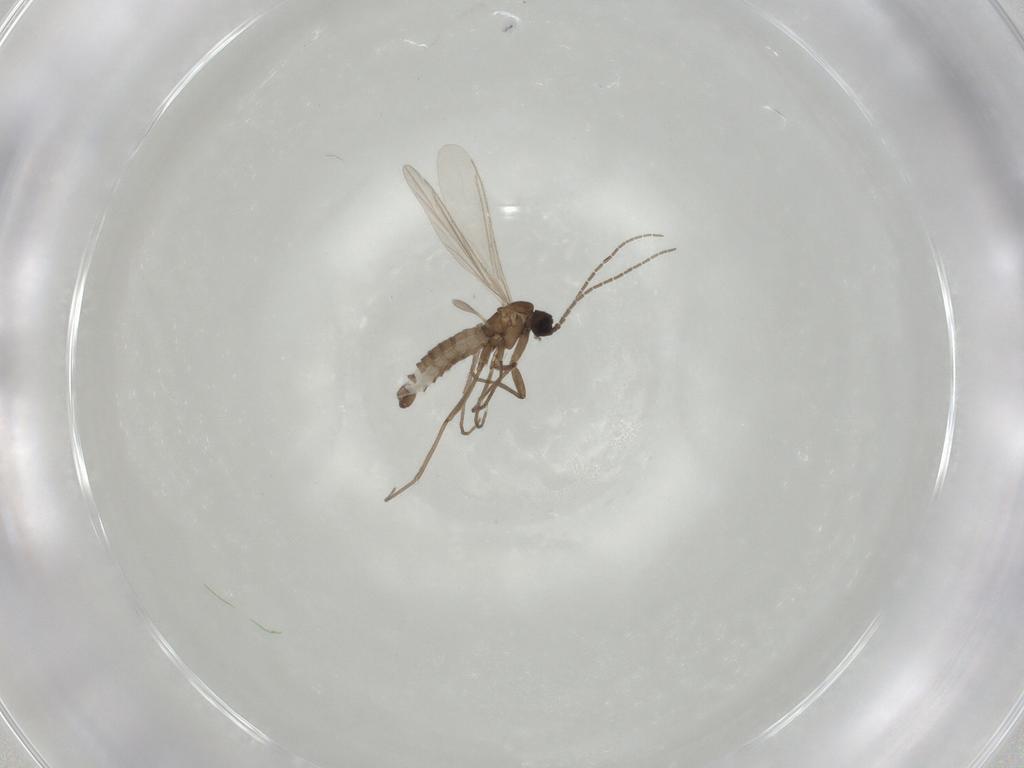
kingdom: Animalia
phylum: Arthropoda
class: Insecta
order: Diptera
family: Sciaridae
